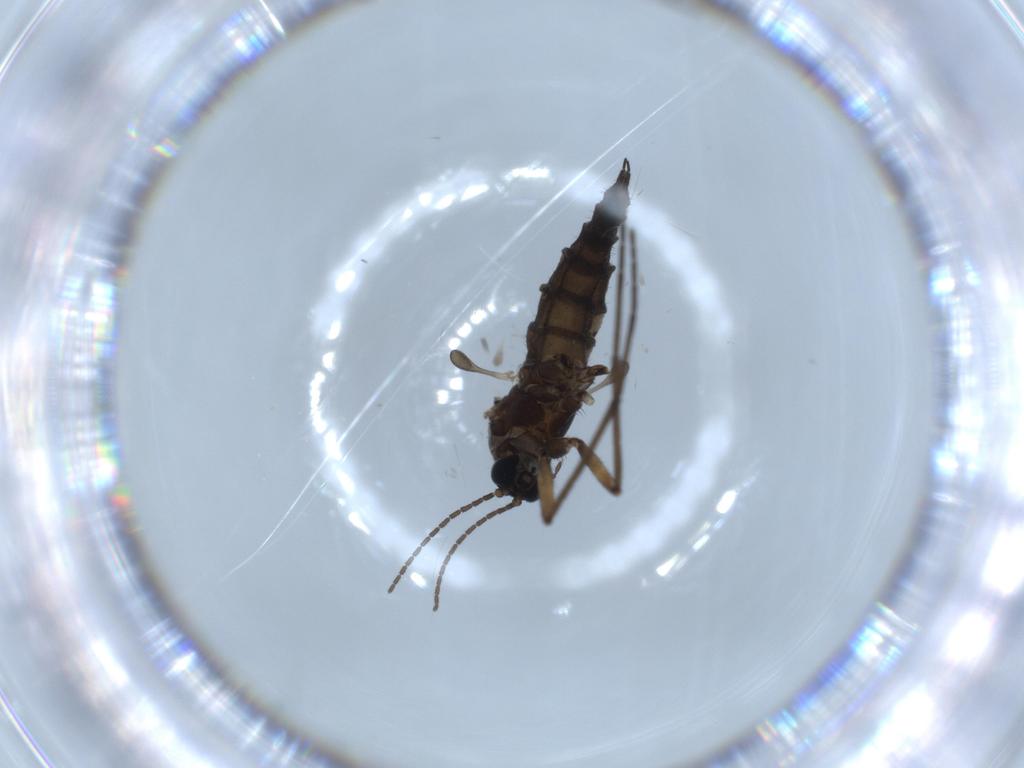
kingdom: Animalia
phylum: Arthropoda
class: Insecta
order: Diptera
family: Sciaridae
